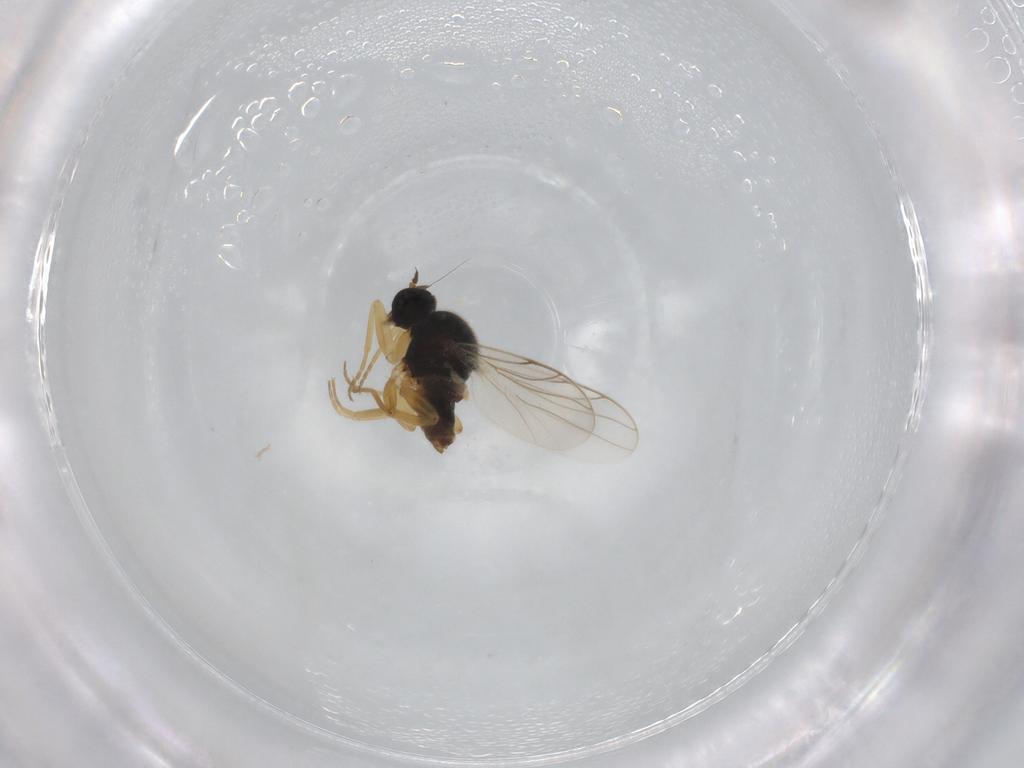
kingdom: Animalia
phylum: Arthropoda
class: Insecta
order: Diptera
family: Hybotidae
